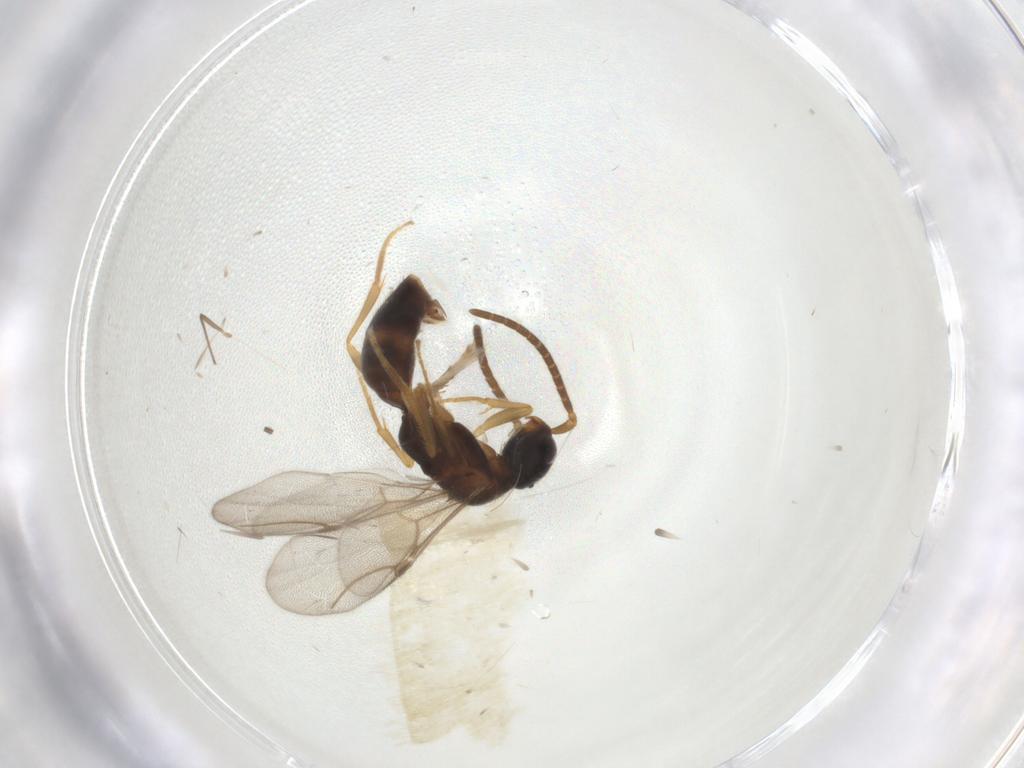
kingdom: Animalia
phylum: Arthropoda
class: Insecta
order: Hymenoptera
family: Bethylidae
